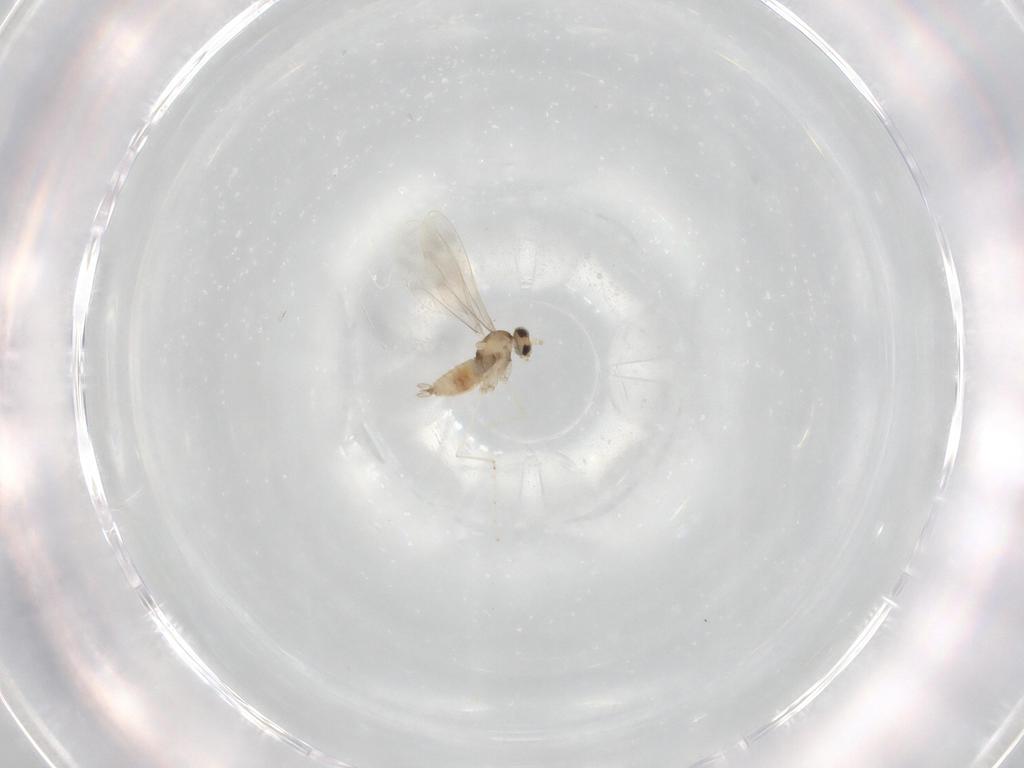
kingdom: Animalia
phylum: Arthropoda
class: Insecta
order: Diptera
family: Cecidomyiidae
